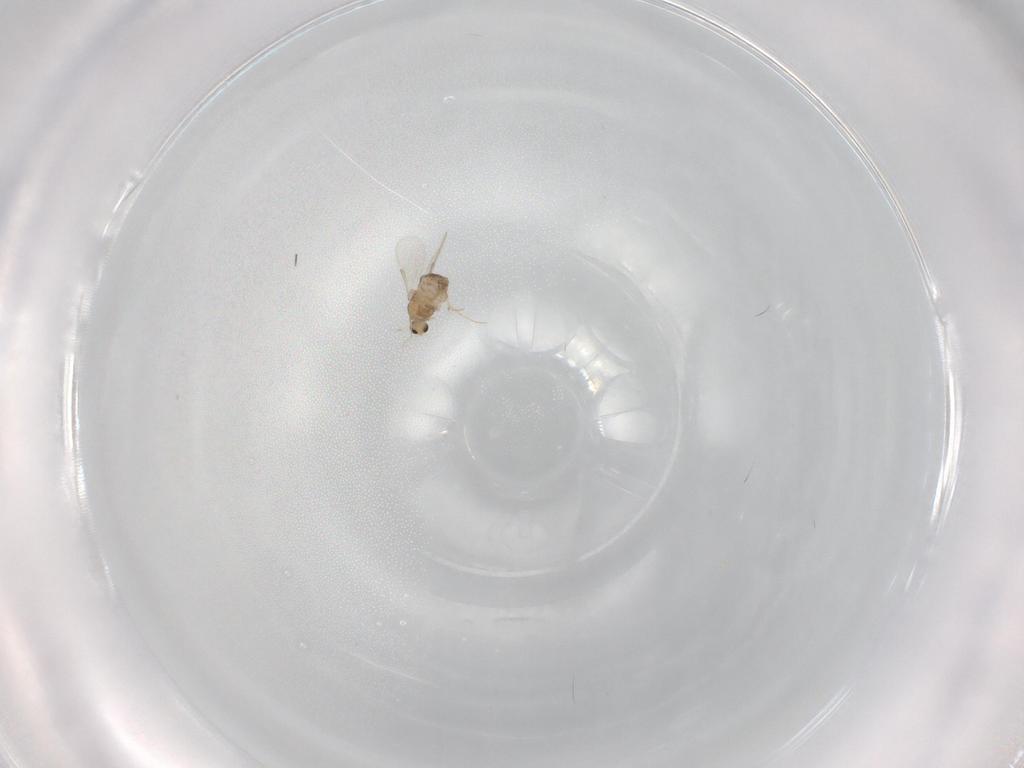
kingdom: Animalia
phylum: Arthropoda
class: Insecta
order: Diptera
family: Chironomidae
